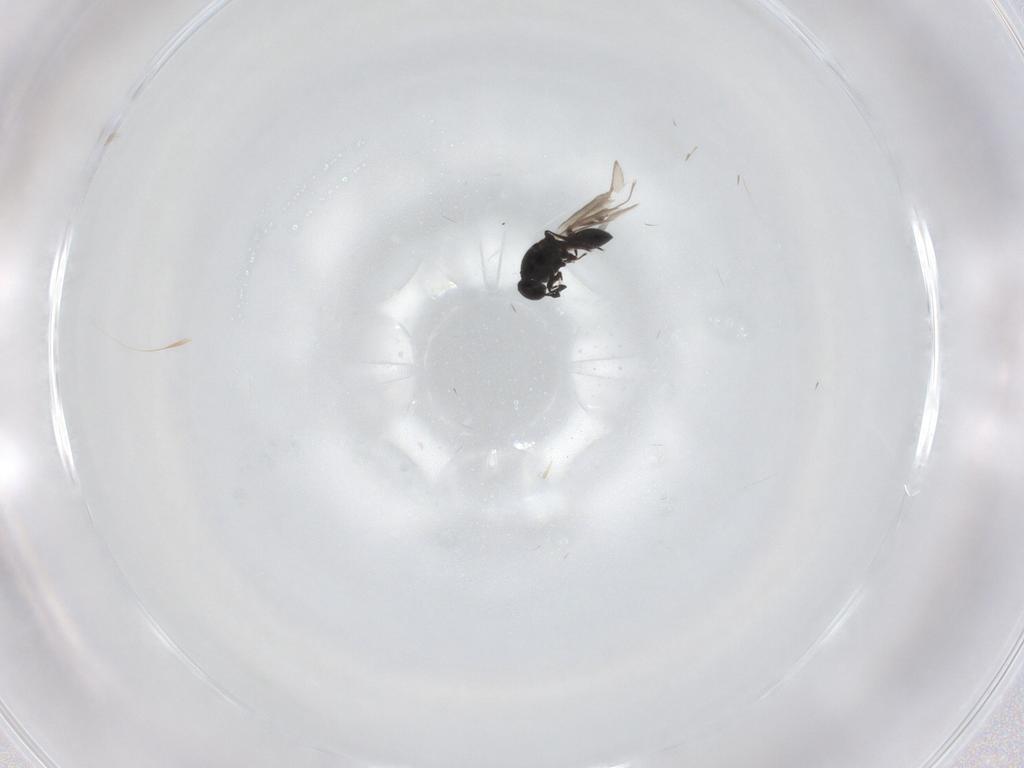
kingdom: Animalia
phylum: Arthropoda
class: Insecta
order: Hymenoptera
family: Platygastridae
